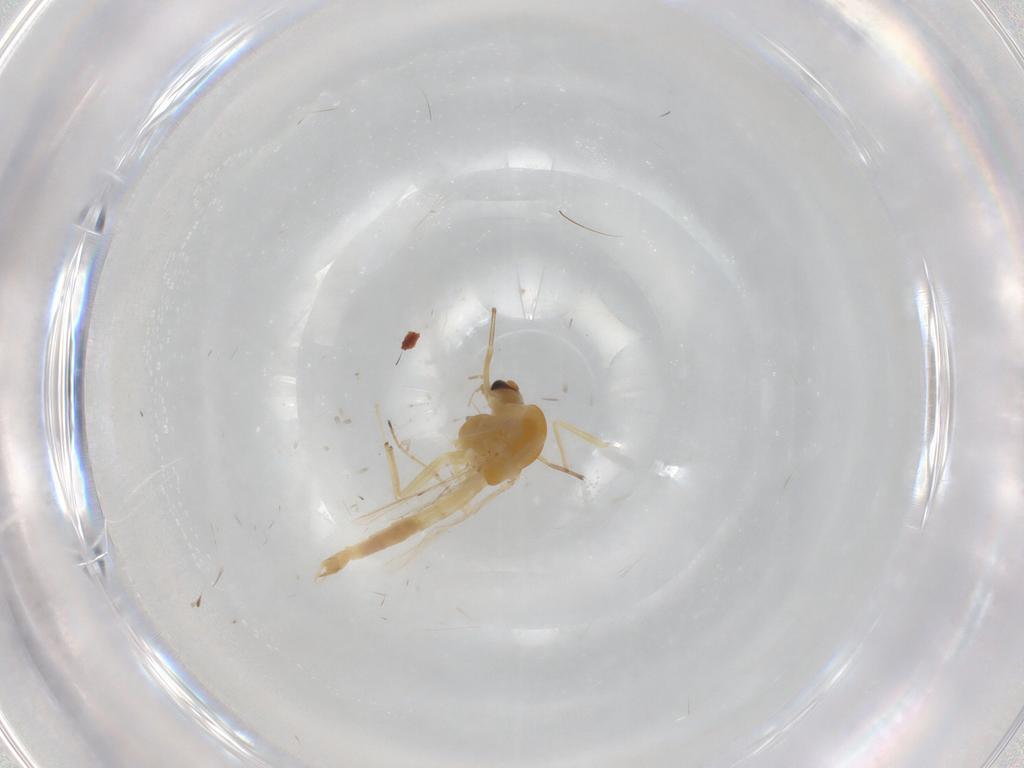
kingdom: Animalia
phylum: Arthropoda
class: Insecta
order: Diptera
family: Chironomidae
